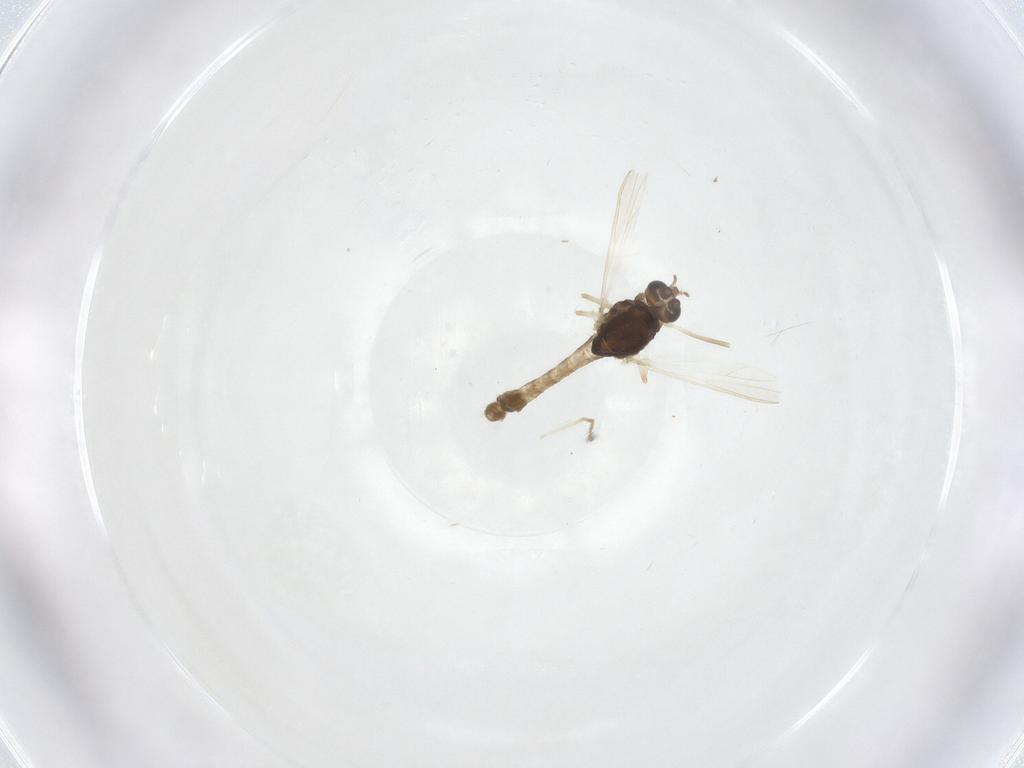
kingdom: Animalia
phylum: Arthropoda
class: Insecta
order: Diptera
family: Chironomidae
